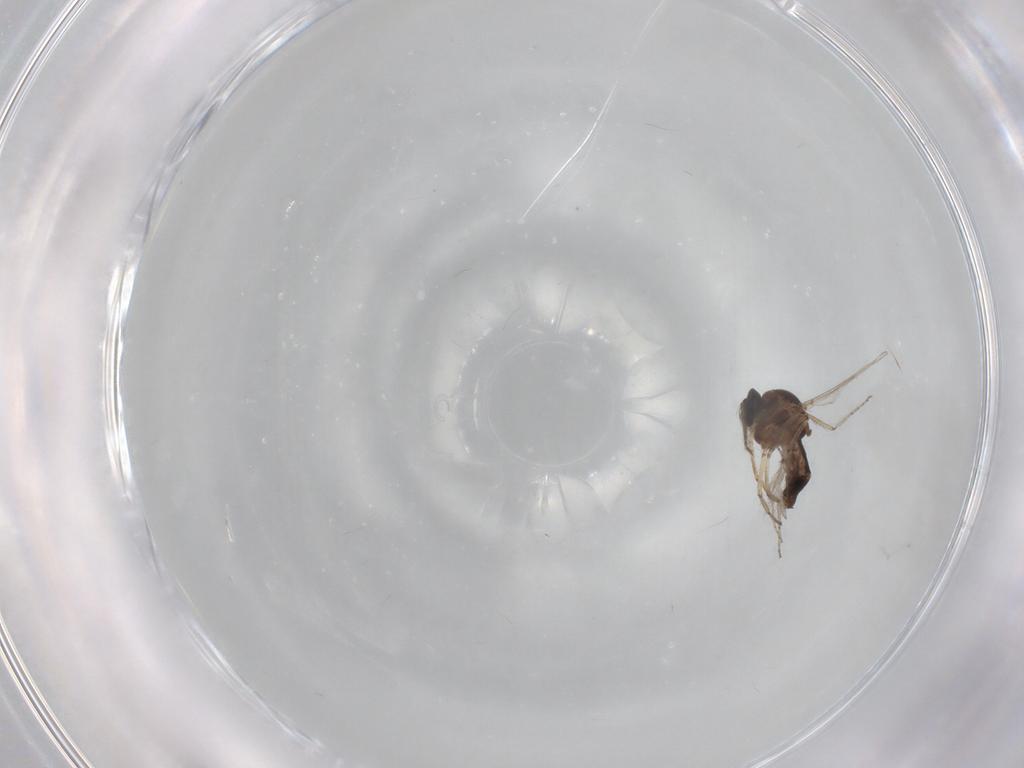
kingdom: Animalia
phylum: Arthropoda
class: Insecta
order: Diptera
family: Ceratopogonidae
